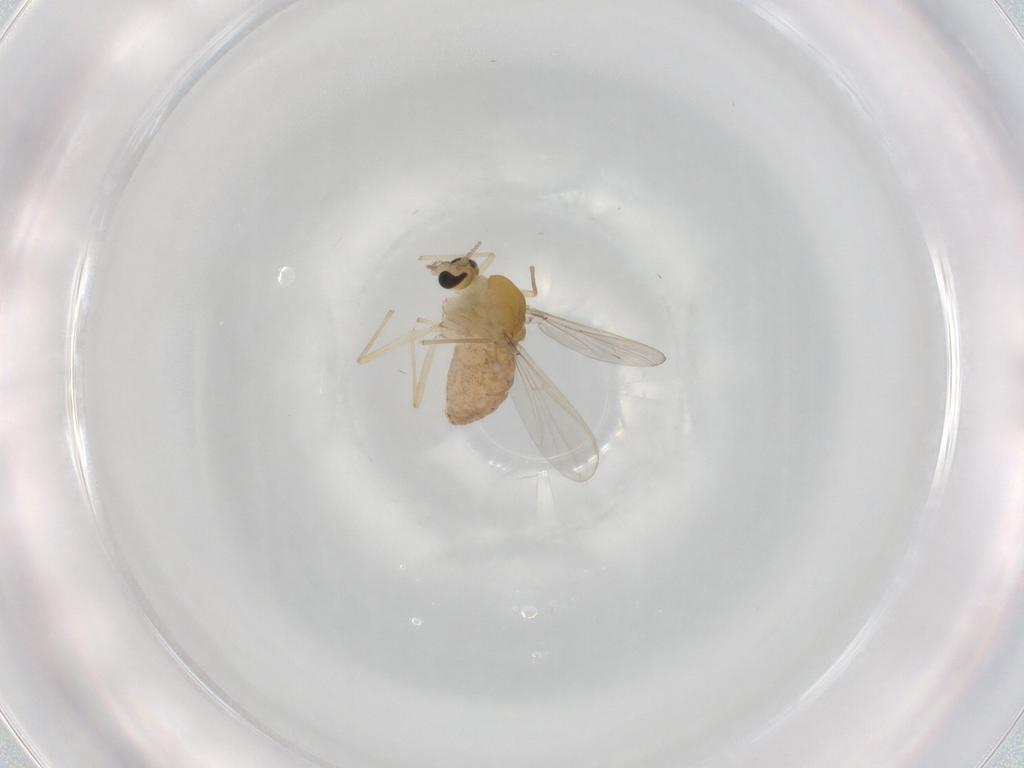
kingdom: Animalia
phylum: Arthropoda
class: Insecta
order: Diptera
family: Chironomidae
